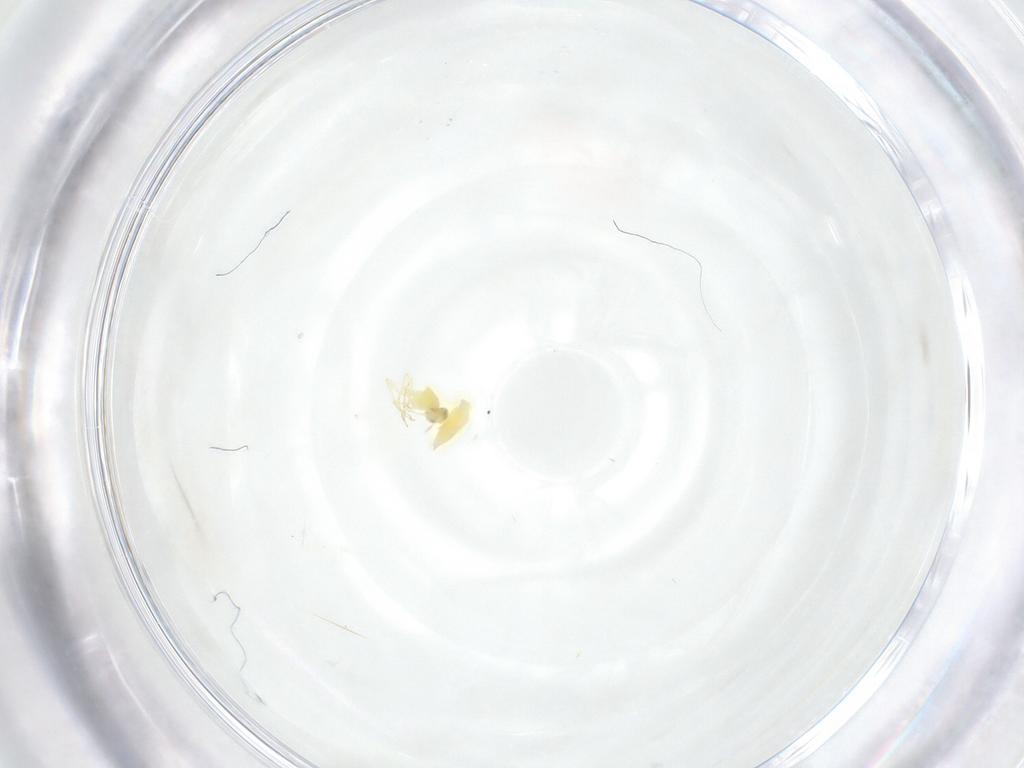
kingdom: Animalia
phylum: Arthropoda
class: Insecta
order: Hymenoptera
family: Aphelinidae
